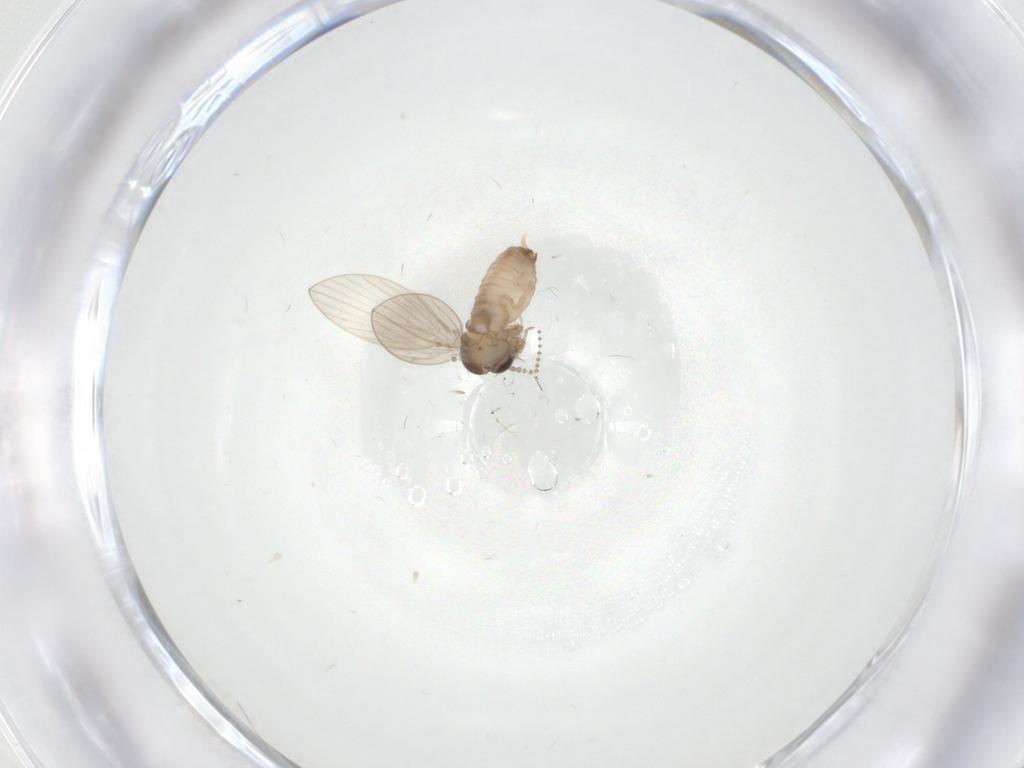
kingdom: Animalia
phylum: Arthropoda
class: Insecta
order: Diptera
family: Psychodidae
